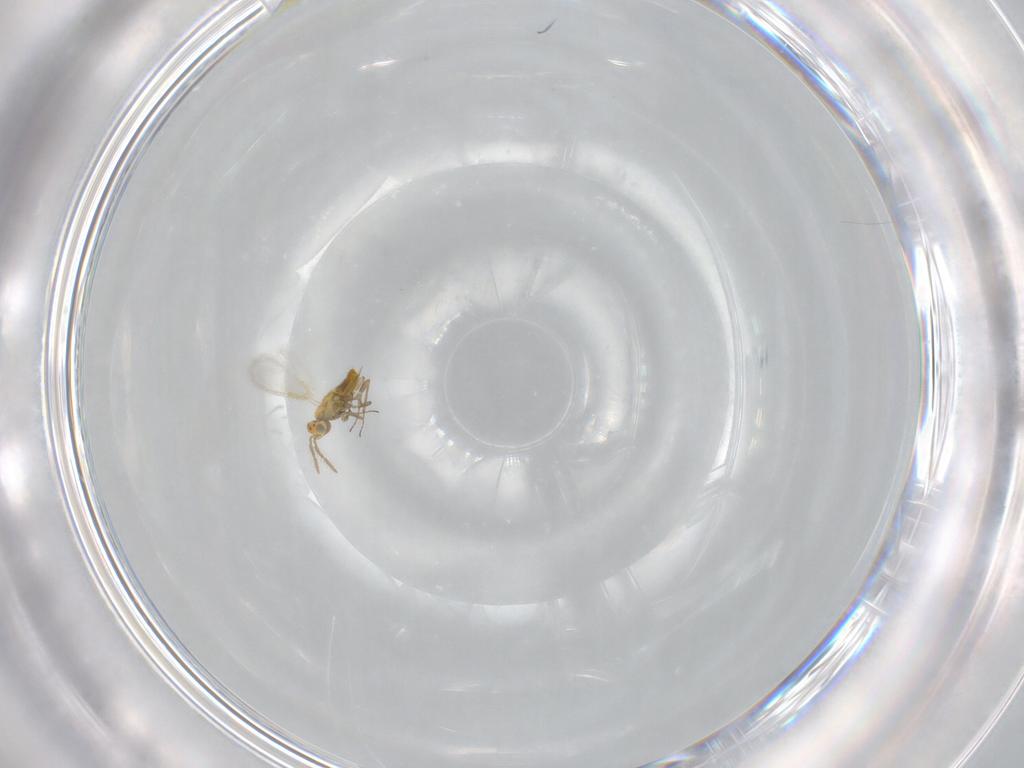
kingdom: Animalia
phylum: Arthropoda
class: Insecta
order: Hymenoptera
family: Aphelinidae
